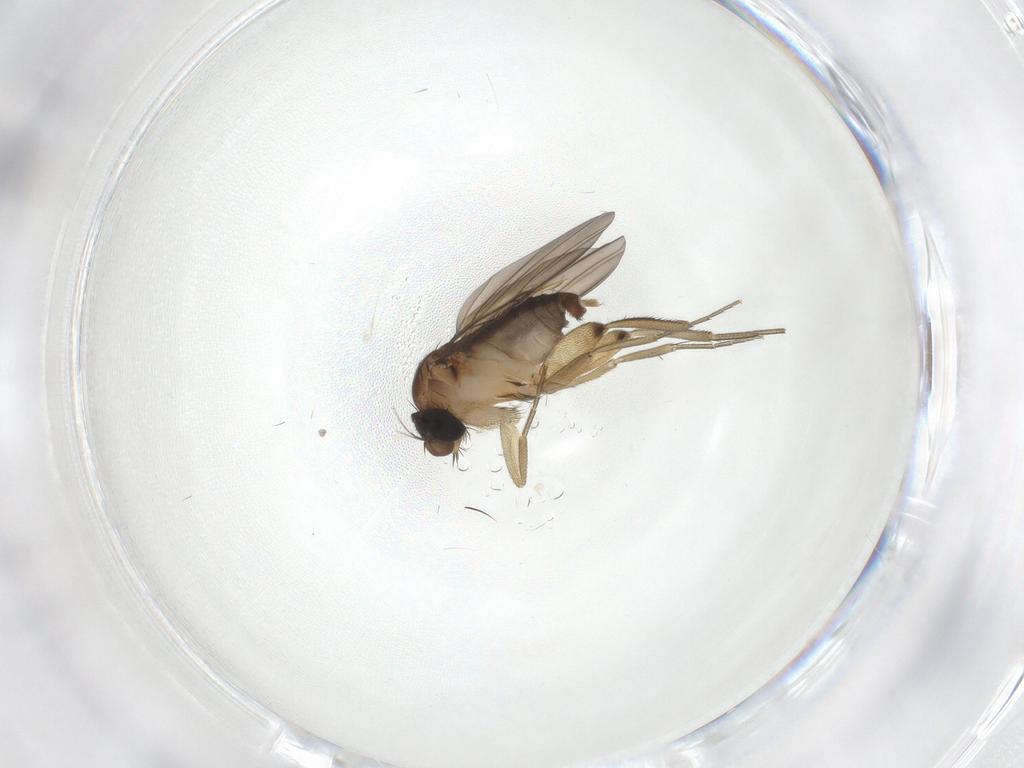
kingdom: Animalia
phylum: Arthropoda
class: Insecta
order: Diptera
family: Phoridae
